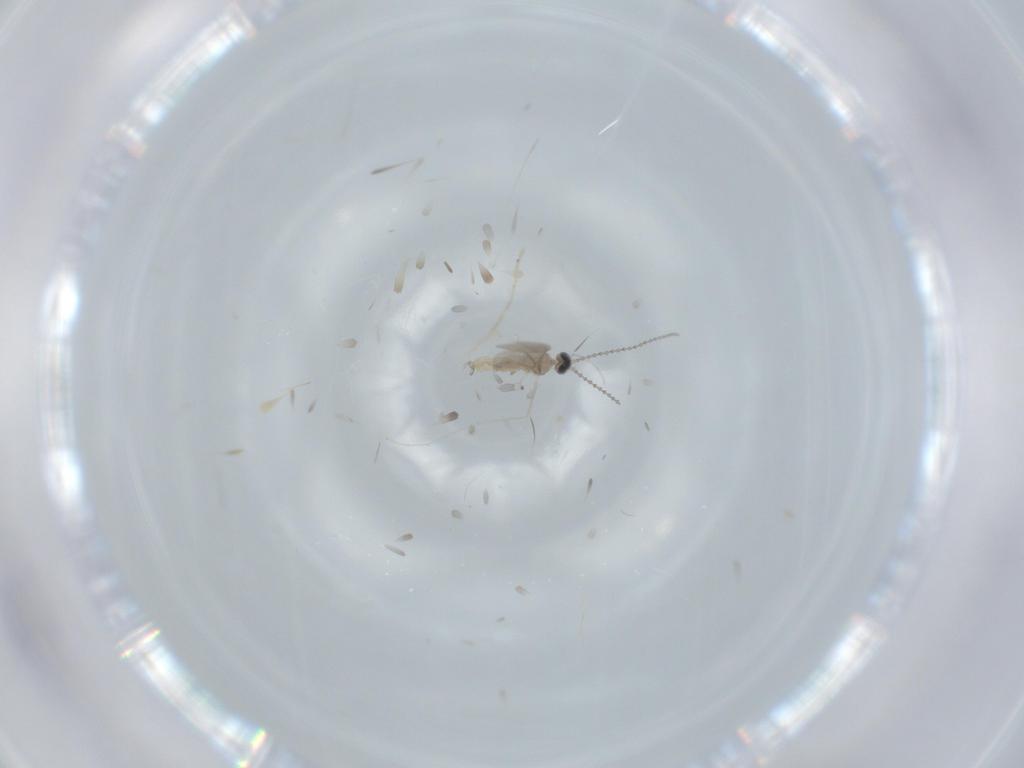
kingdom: Animalia
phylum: Arthropoda
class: Insecta
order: Diptera
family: Cecidomyiidae
